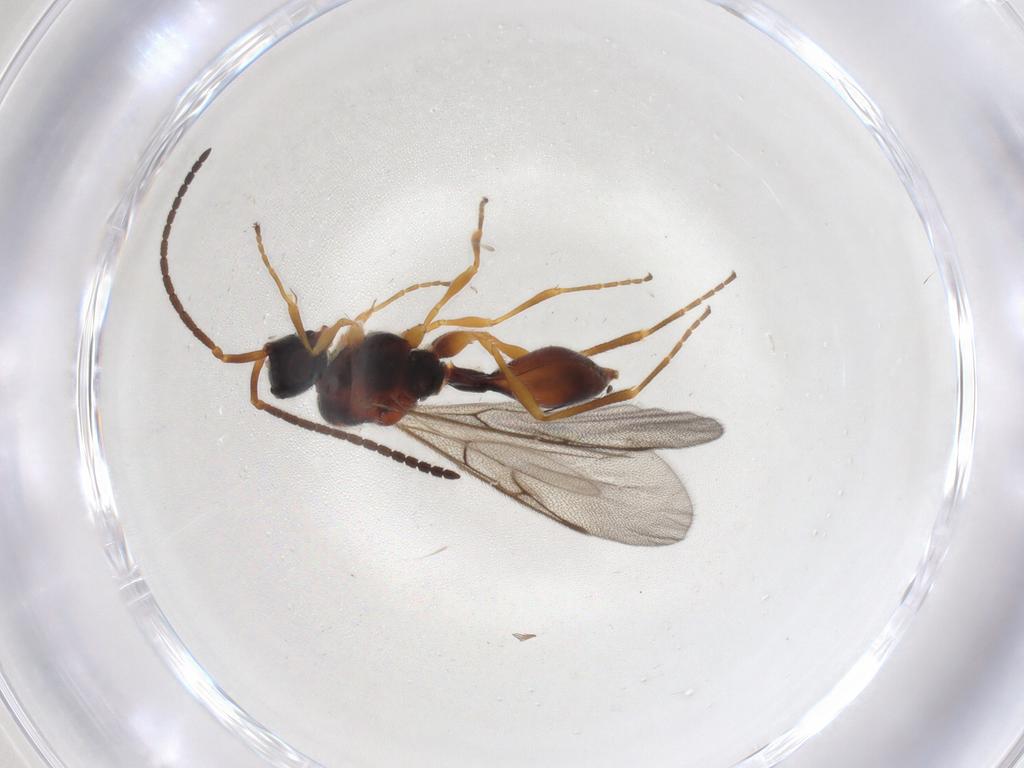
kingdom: Animalia
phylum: Arthropoda
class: Insecta
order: Hymenoptera
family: Diapriidae
